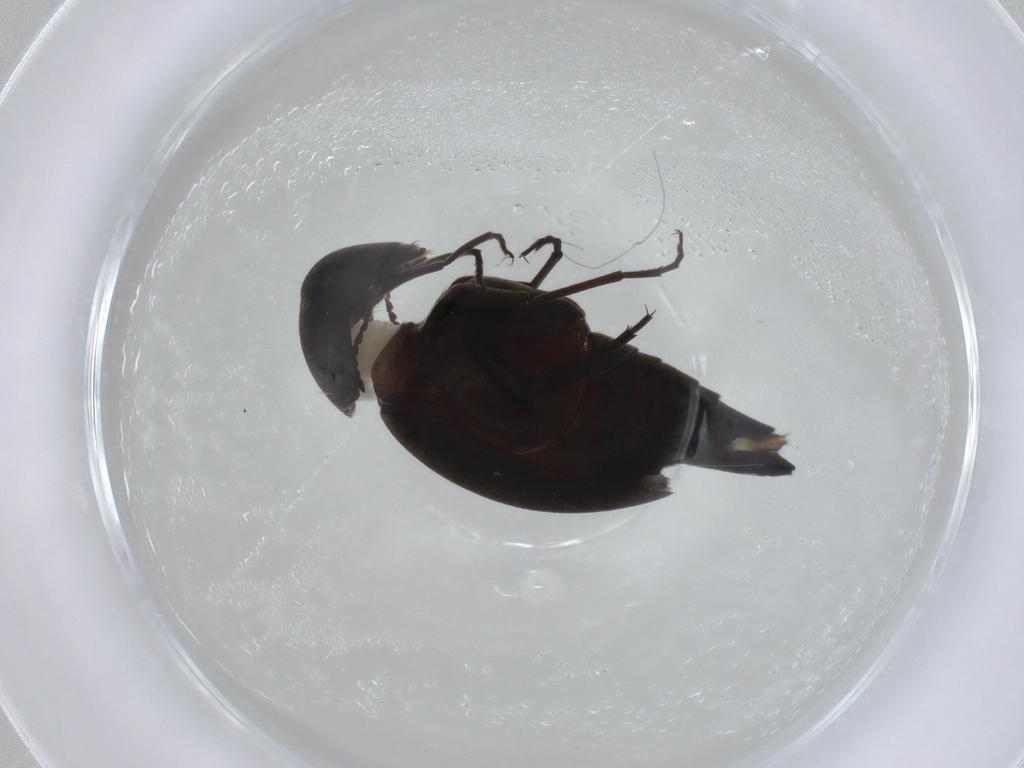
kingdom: Animalia
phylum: Arthropoda
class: Insecta
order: Coleoptera
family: Mordellidae
